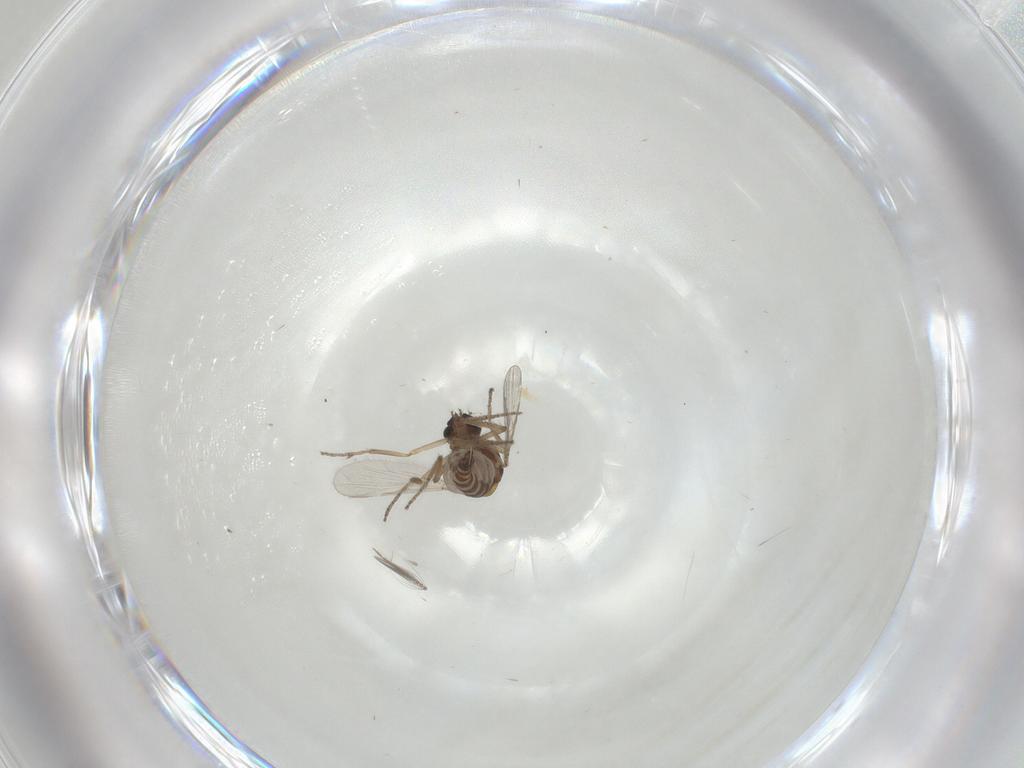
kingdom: Animalia
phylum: Arthropoda
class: Insecta
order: Diptera
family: Ceratopogonidae
